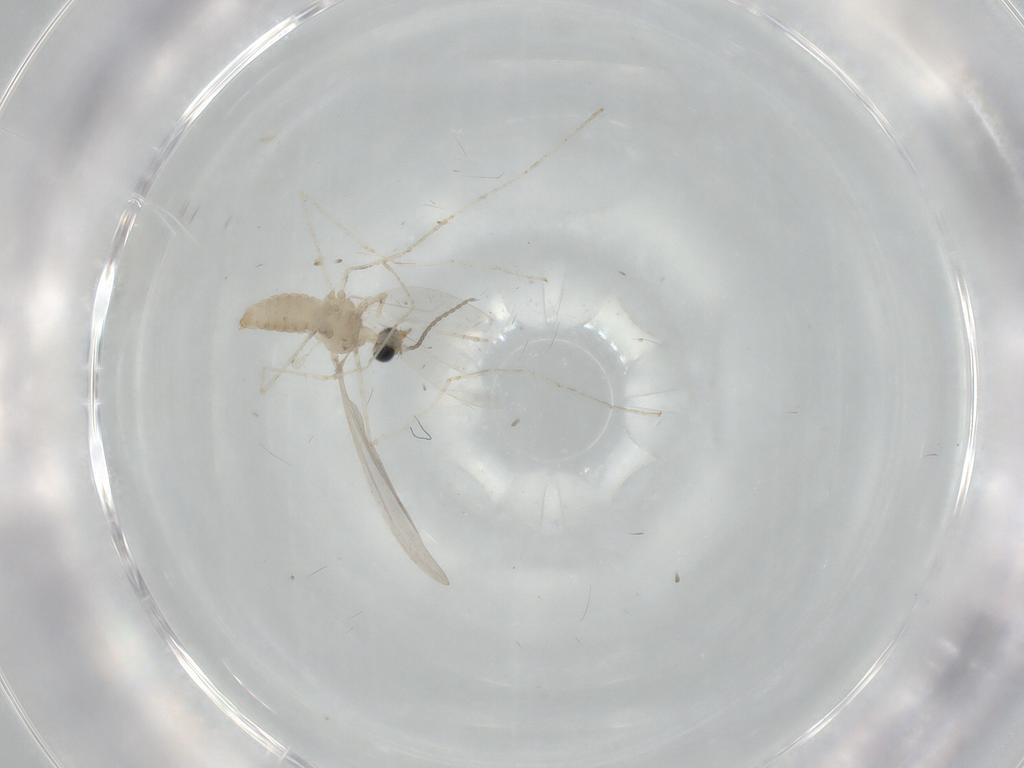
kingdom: Animalia
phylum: Arthropoda
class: Insecta
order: Diptera
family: Cecidomyiidae
